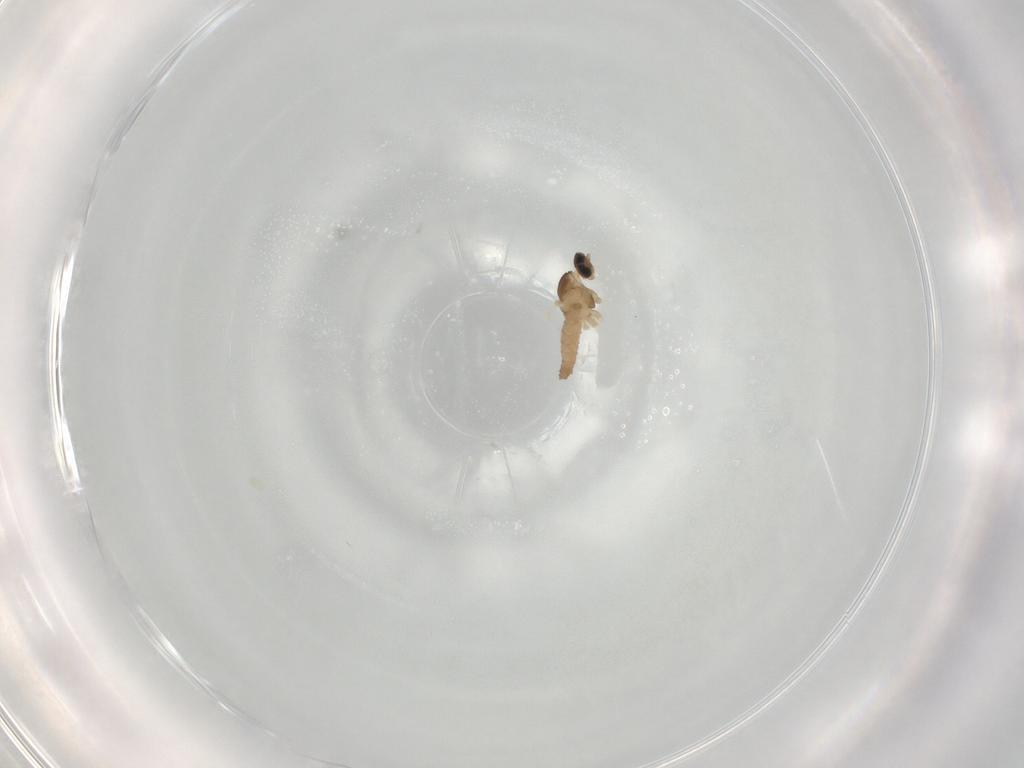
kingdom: Animalia
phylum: Arthropoda
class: Insecta
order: Diptera
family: Cecidomyiidae
